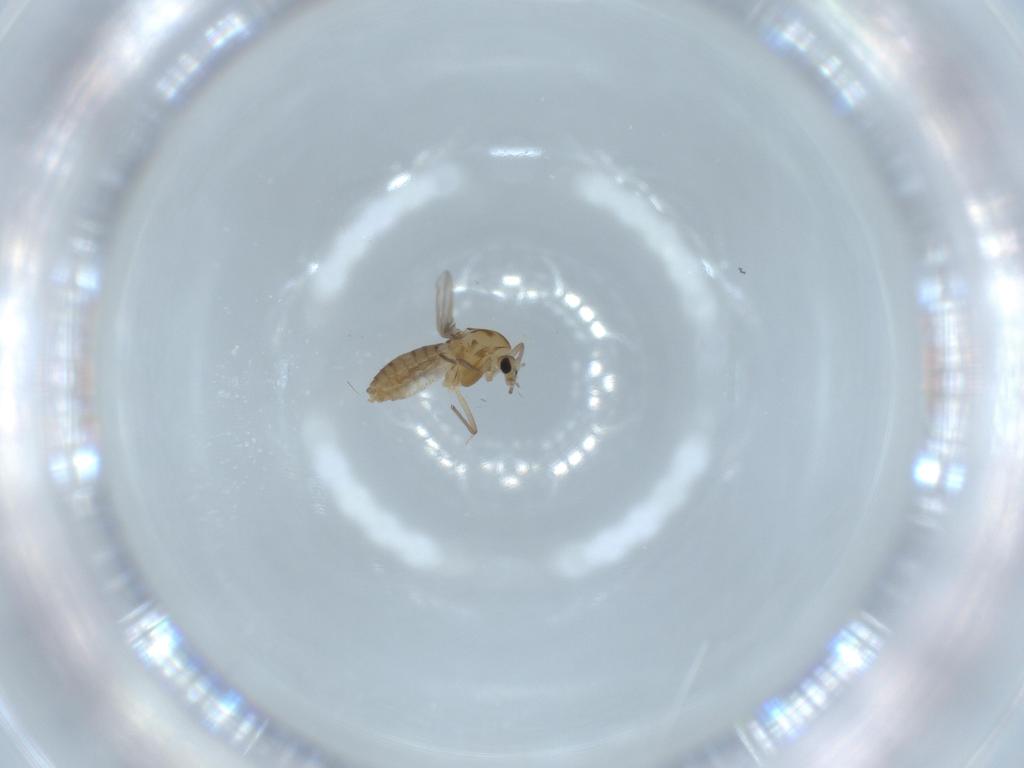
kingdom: Animalia
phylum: Arthropoda
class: Insecta
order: Diptera
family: Chironomidae
